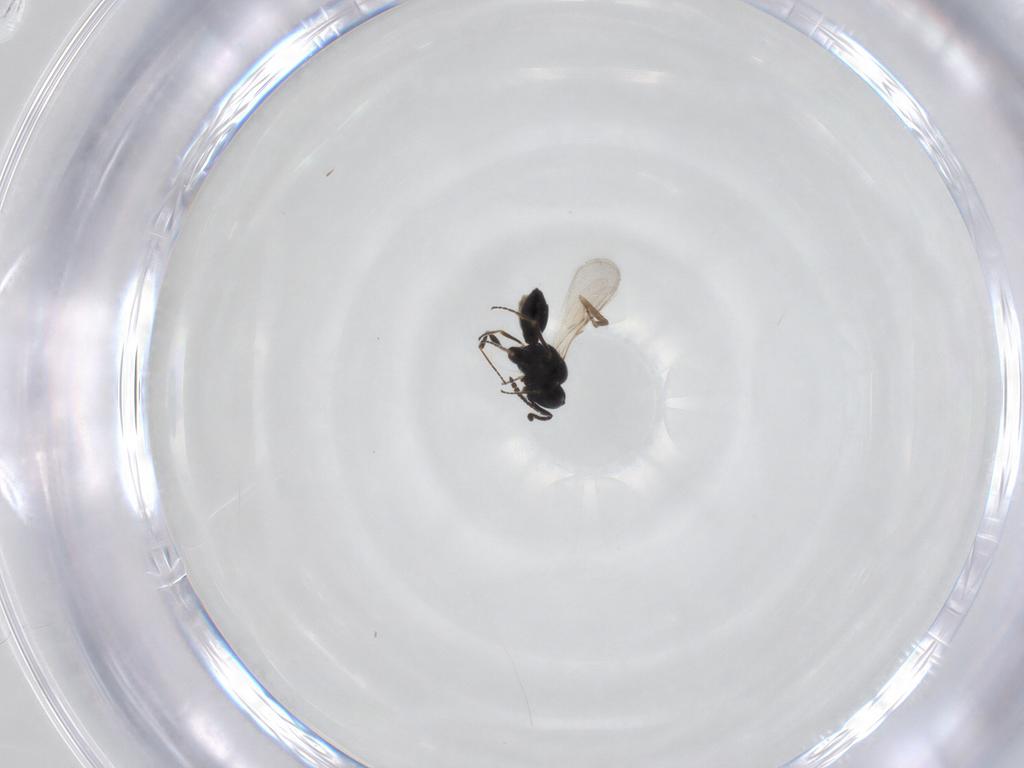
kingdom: Animalia
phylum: Arthropoda
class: Insecta
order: Hymenoptera
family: Scelionidae
